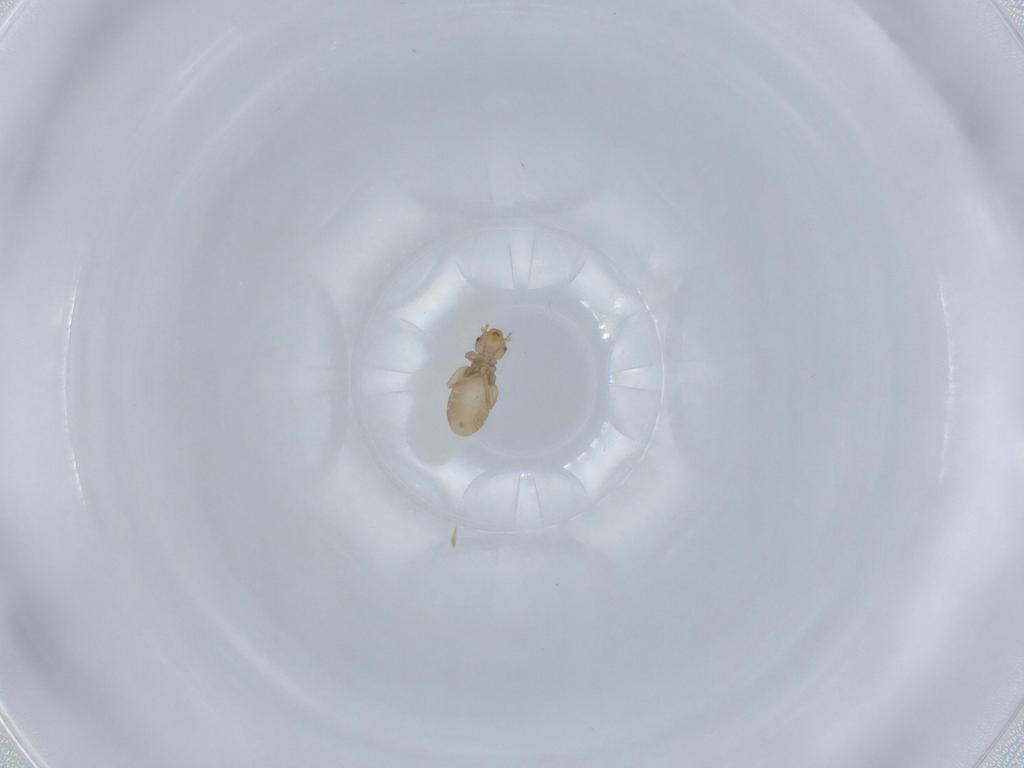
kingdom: Animalia
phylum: Arthropoda
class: Insecta
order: Psocodea
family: Liposcelididae
